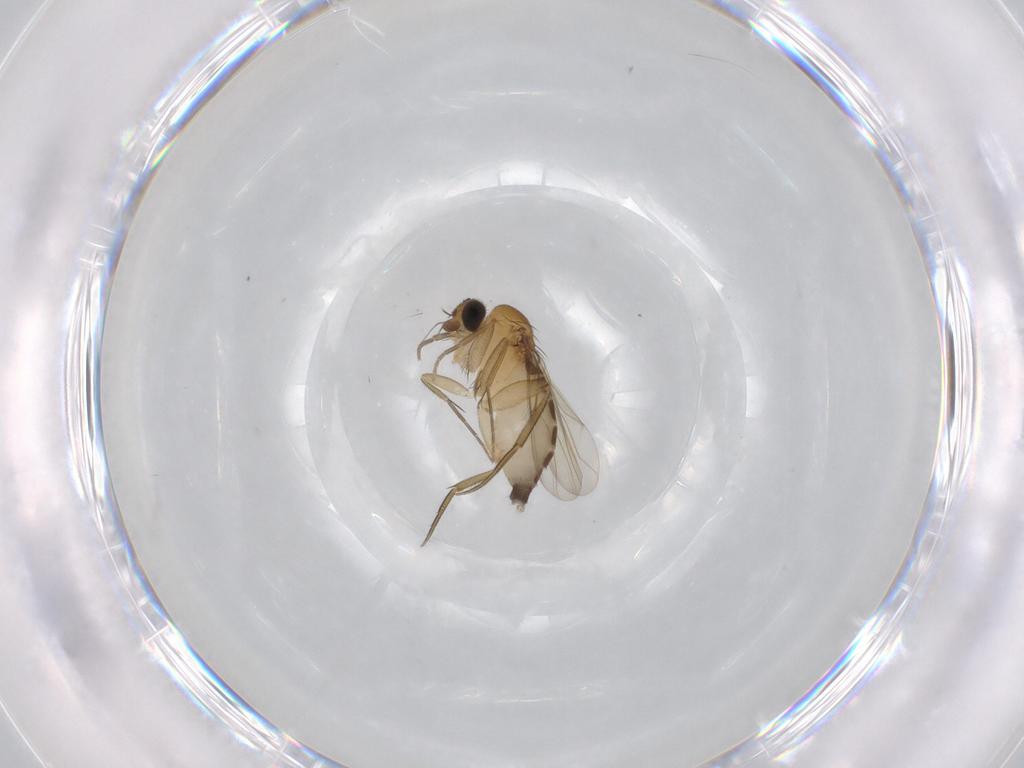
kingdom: Animalia
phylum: Arthropoda
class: Insecta
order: Diptera
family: Phoridae
